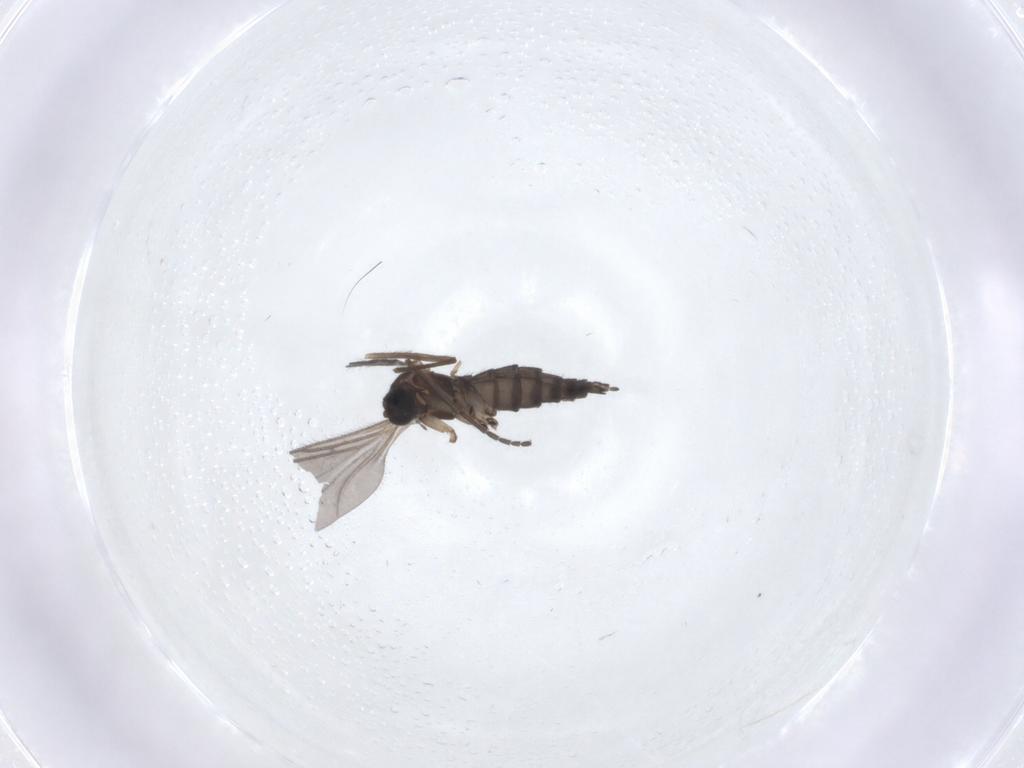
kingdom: Animalia
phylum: Arthropoda
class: Insecta
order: Diptera
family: Sciaridae
